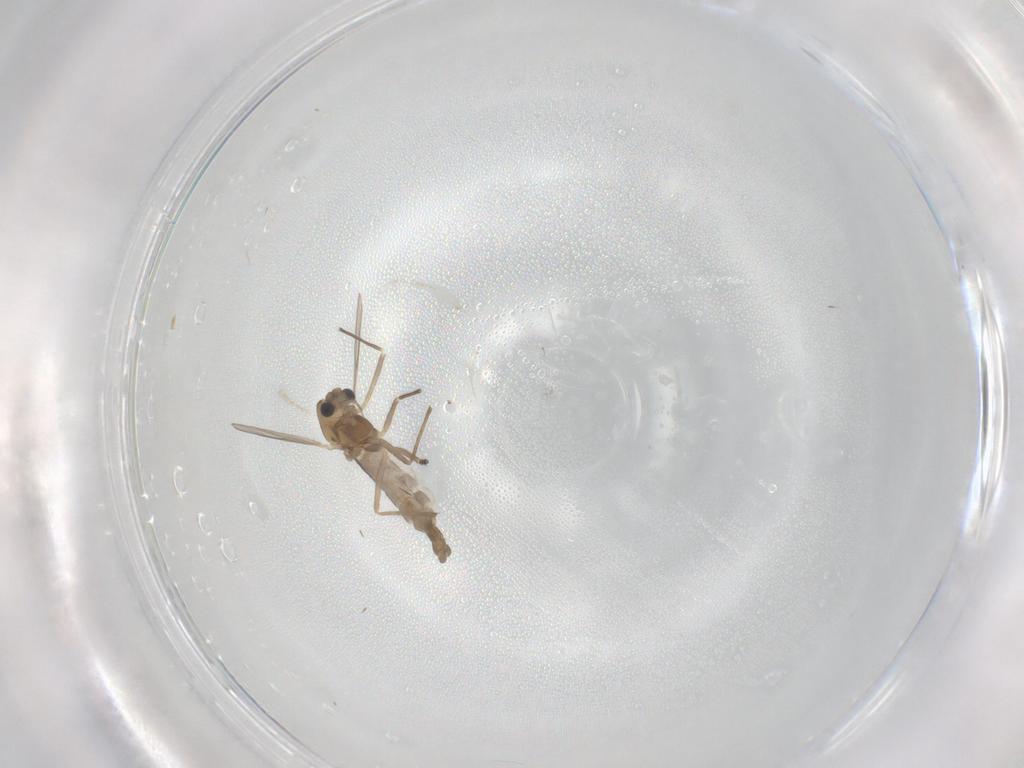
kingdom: Animalia
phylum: Arthropoda
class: Insecta
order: Diptera
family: Chironomidae
